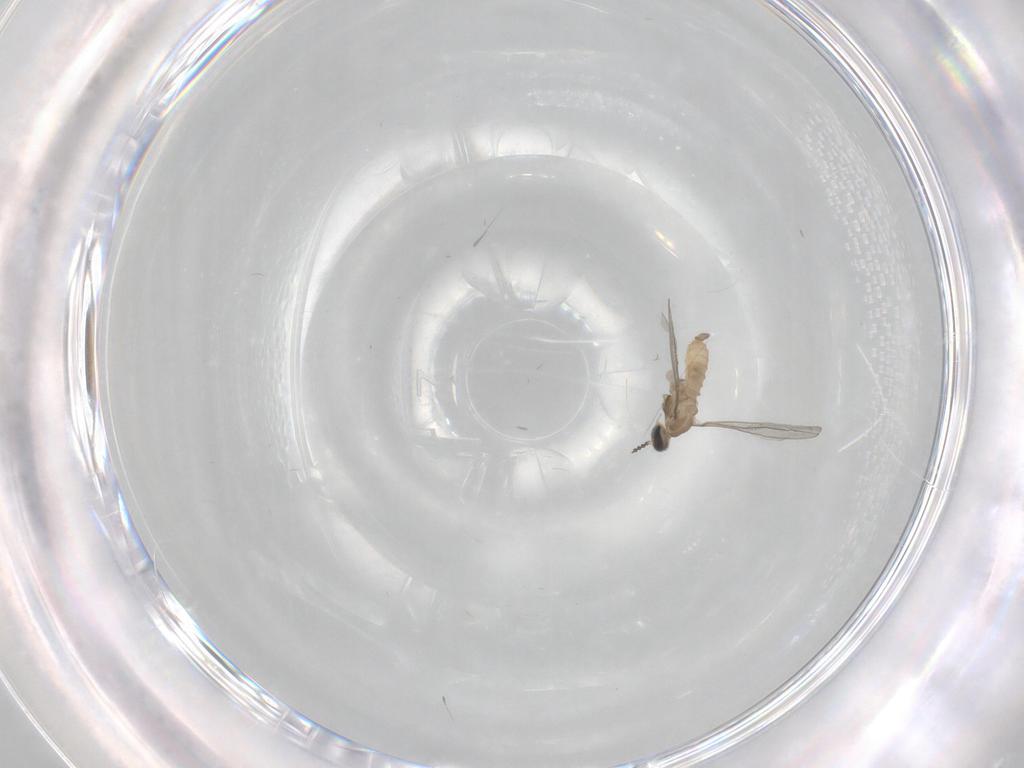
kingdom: Animalia
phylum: Arthropoda
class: Insecta
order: Diptera
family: Cecidomyiidae
